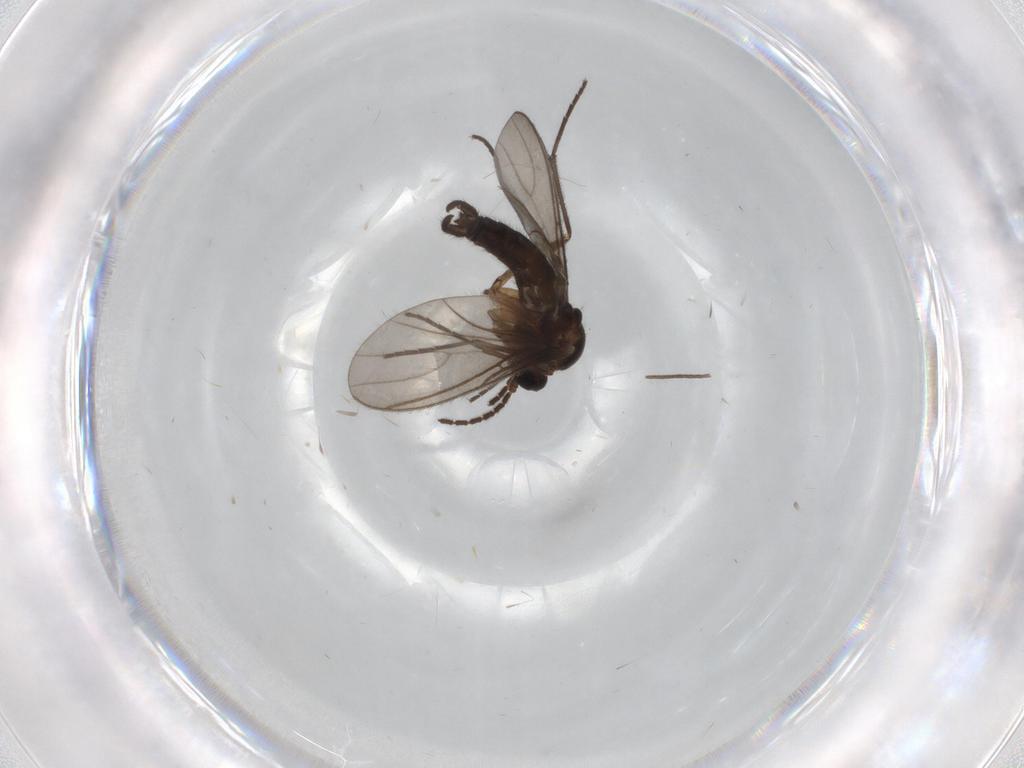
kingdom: Animalia
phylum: Arthropoda
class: Insecta
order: Diptera
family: Sciaridae
